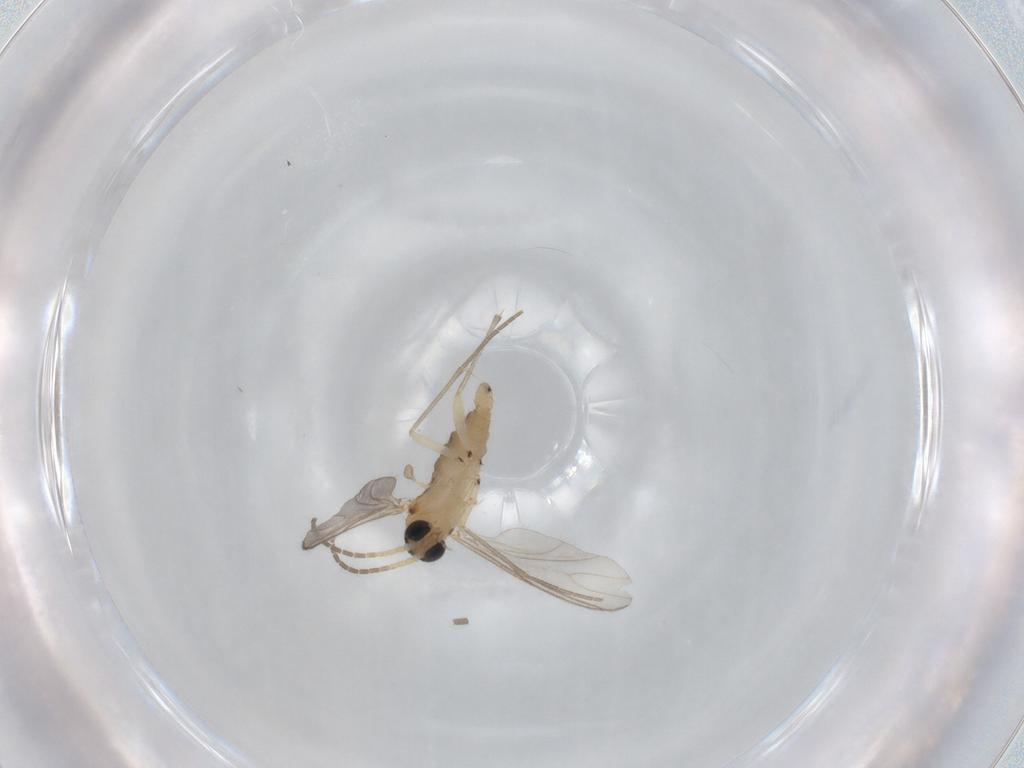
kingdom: Animalia
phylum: Arthropoda
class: Insecta
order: Diptera
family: Sciaridae
